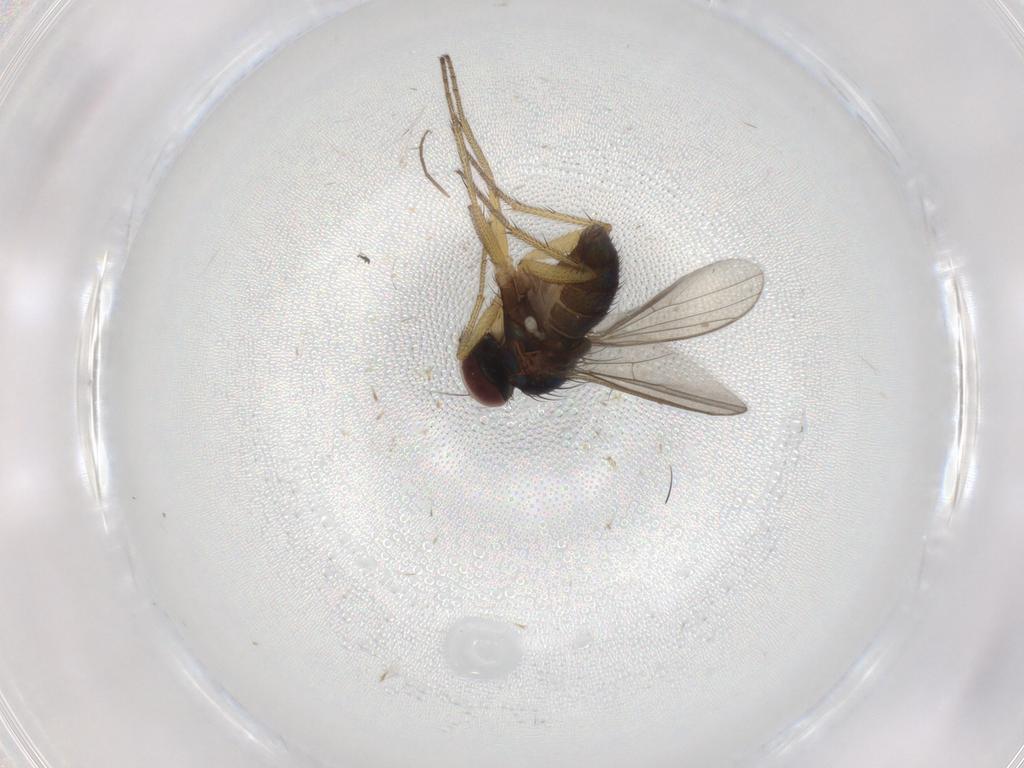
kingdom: Animalia
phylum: Arthropoda
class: Insecta
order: Diptera
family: Dolichopodidae
